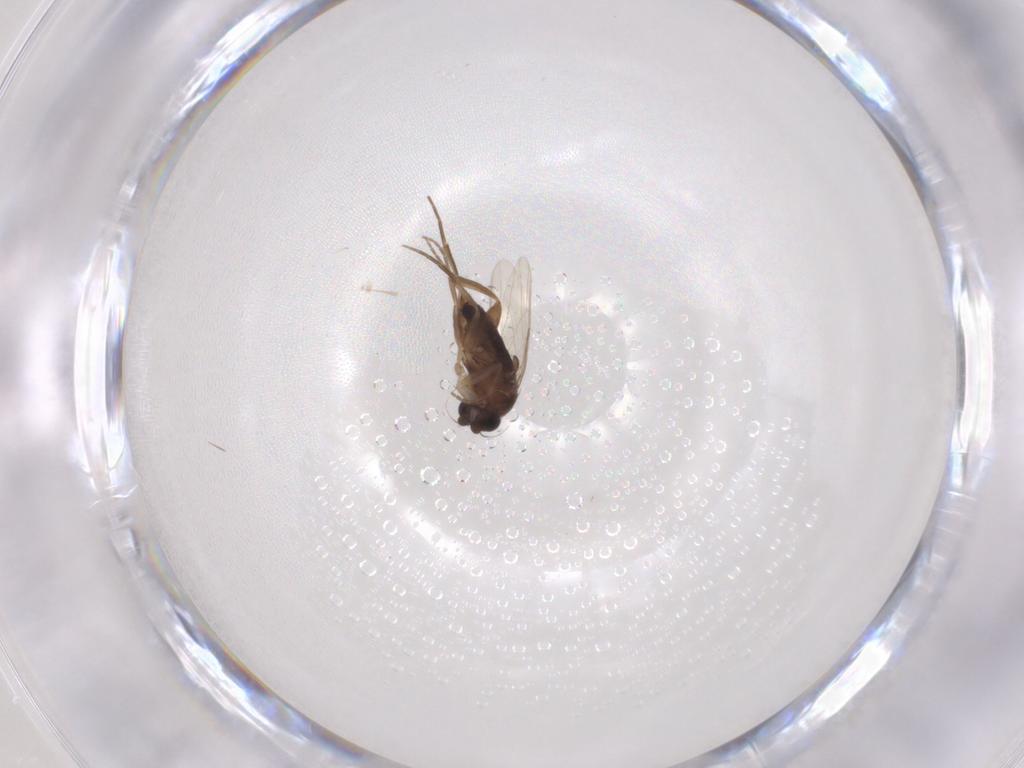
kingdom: Animalia
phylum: Arthropoda
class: Insecta
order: Diptera
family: Phoridae
